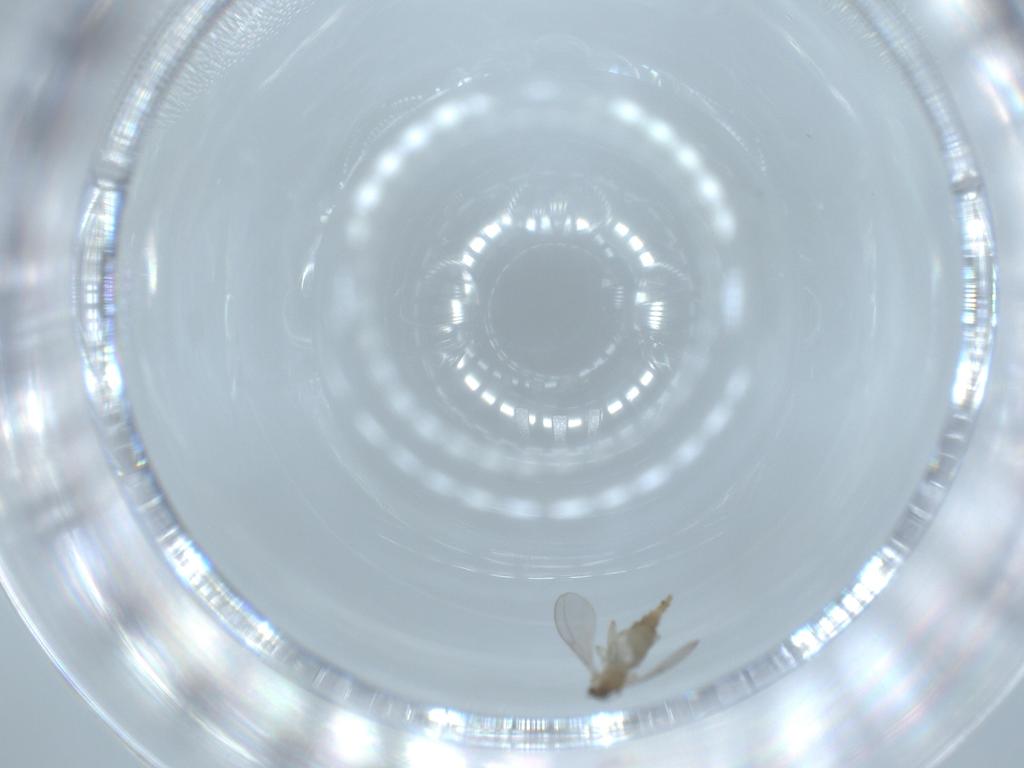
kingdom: Animalia
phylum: Arthropoda
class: Insecta
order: Diptera
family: Cecidomyiidae
